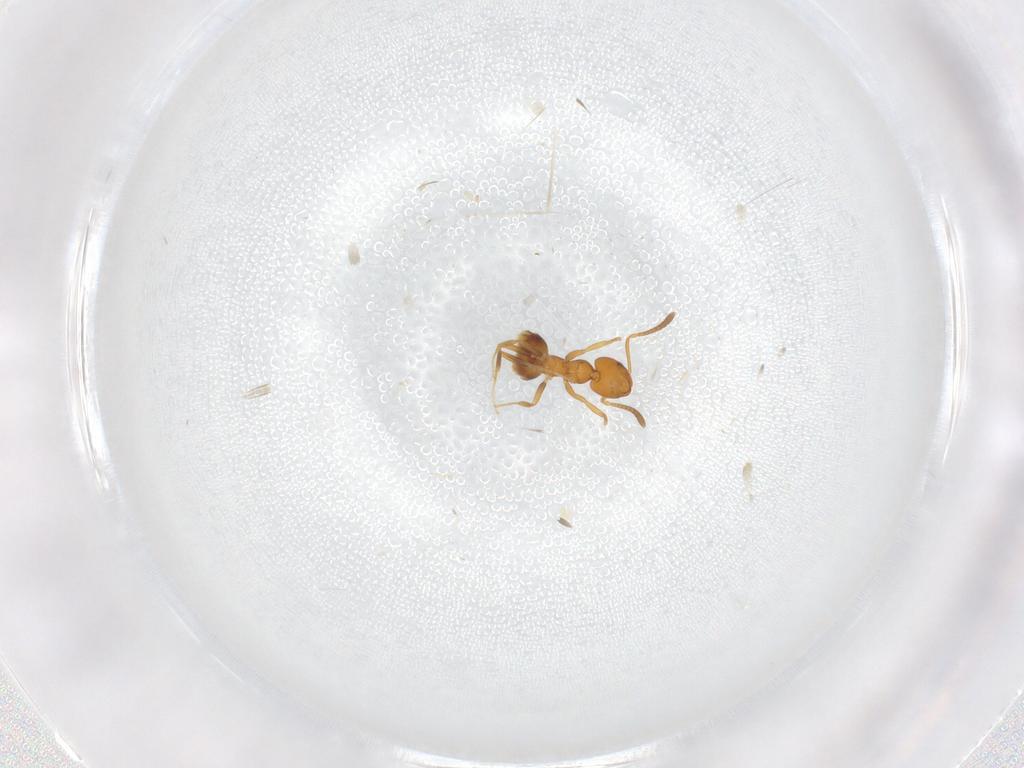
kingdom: Animalia
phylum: Arthropoda
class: Insecta
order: Hymenoptera
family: Formicidae
